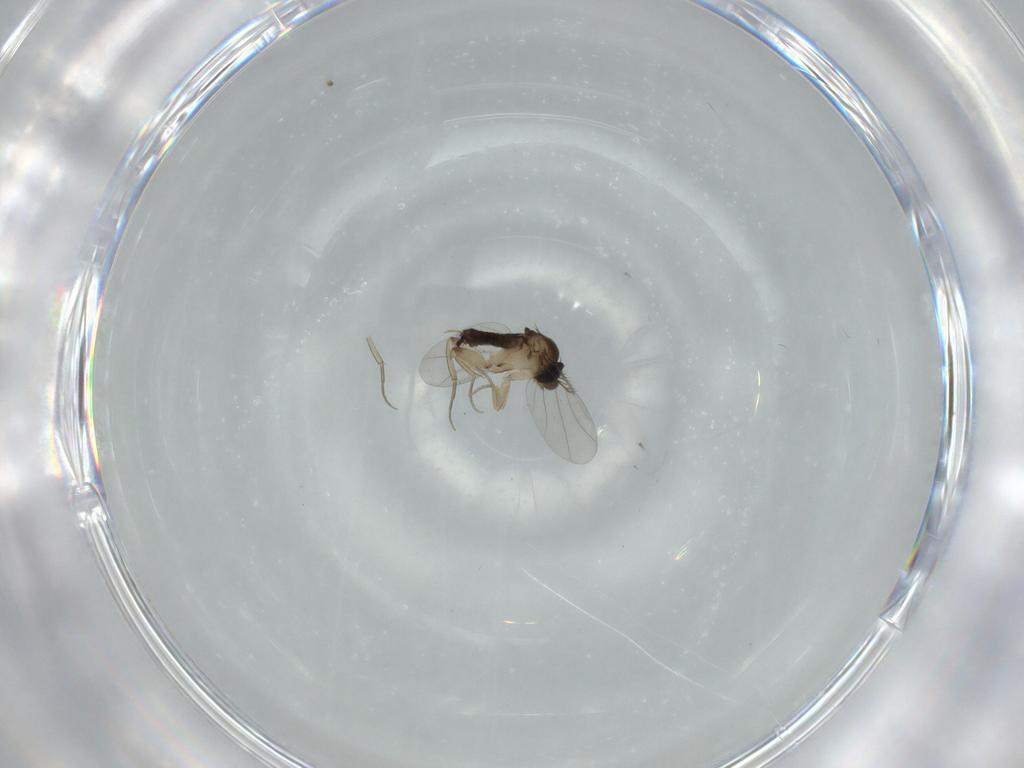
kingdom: Animalia
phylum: Arthropoda
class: Insecta
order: Diptera
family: Phoridae
